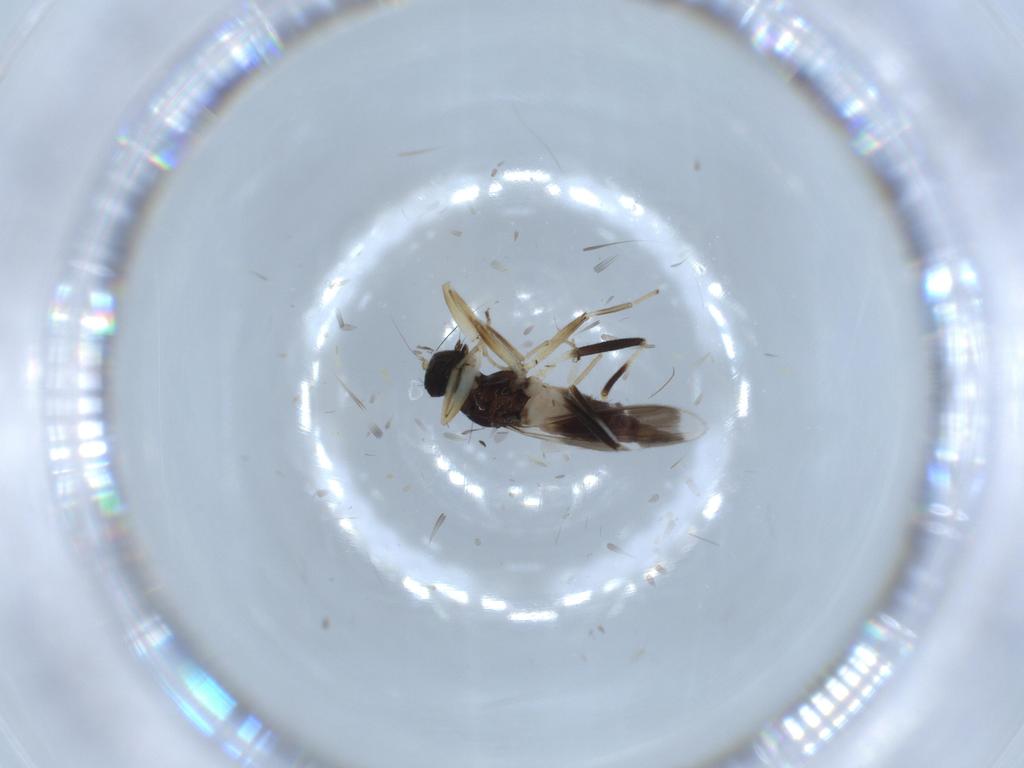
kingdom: Animalia
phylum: Arthropoda
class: Insecta
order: Diptera
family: Hybotidae
